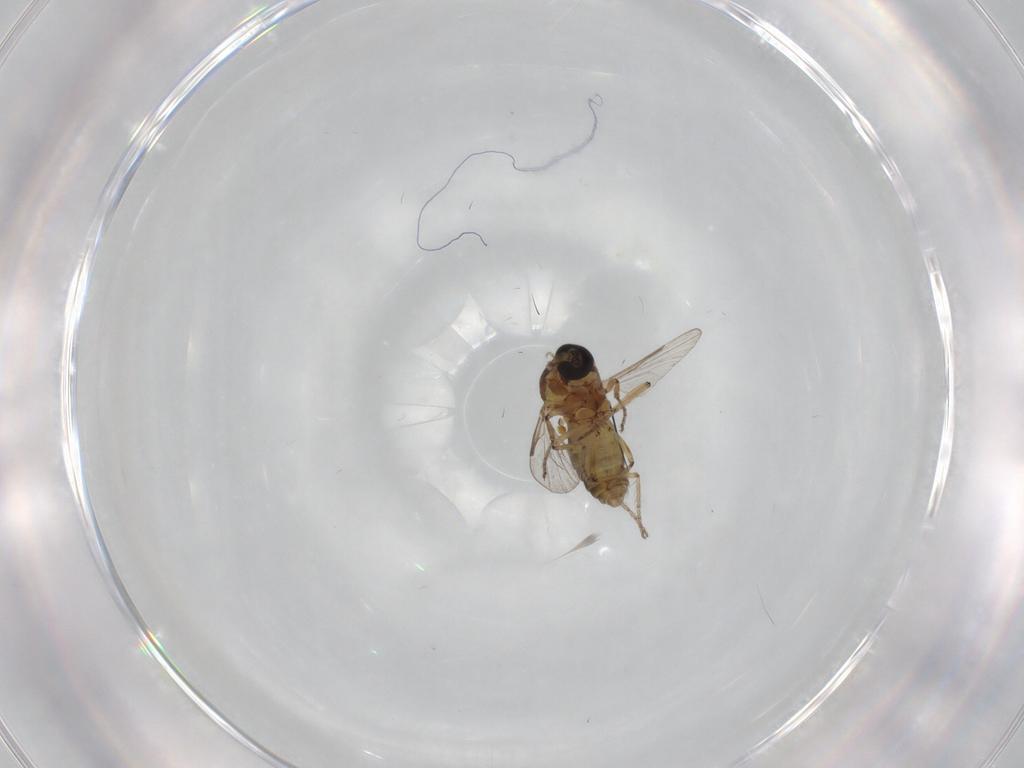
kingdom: Animalia
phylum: Arthropoda
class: Insecta
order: Diptera
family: Ceratopogonidae
